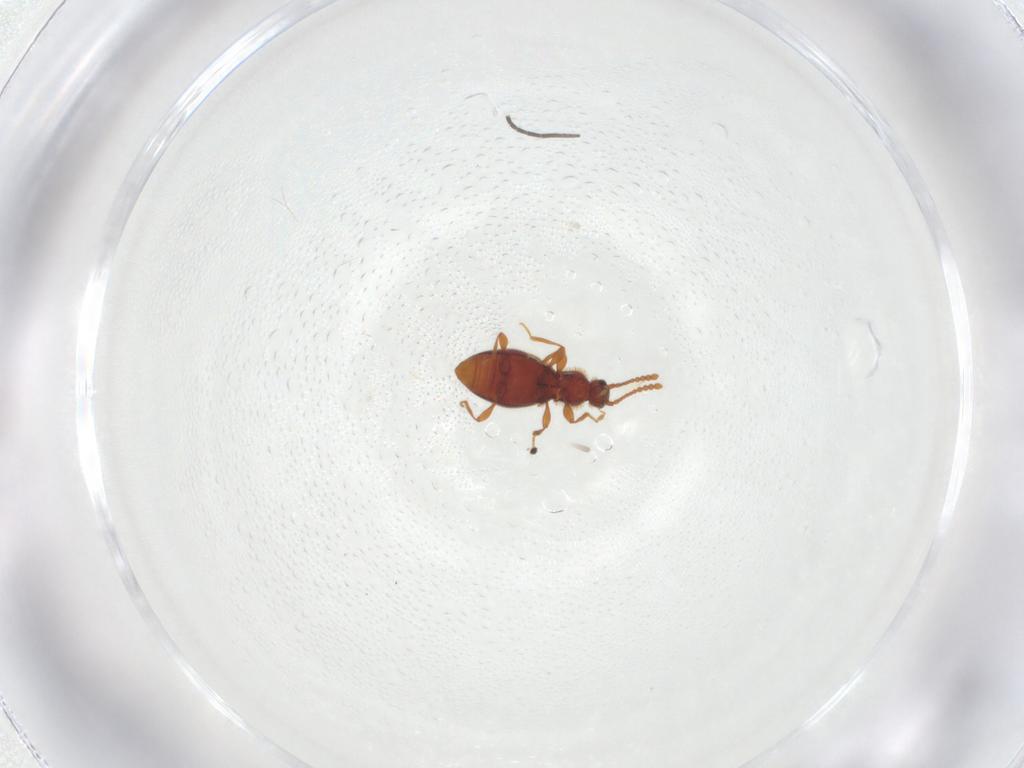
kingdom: Animalia
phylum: Arthropoda
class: Insecta
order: Coleoptera
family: Staphylinidae
